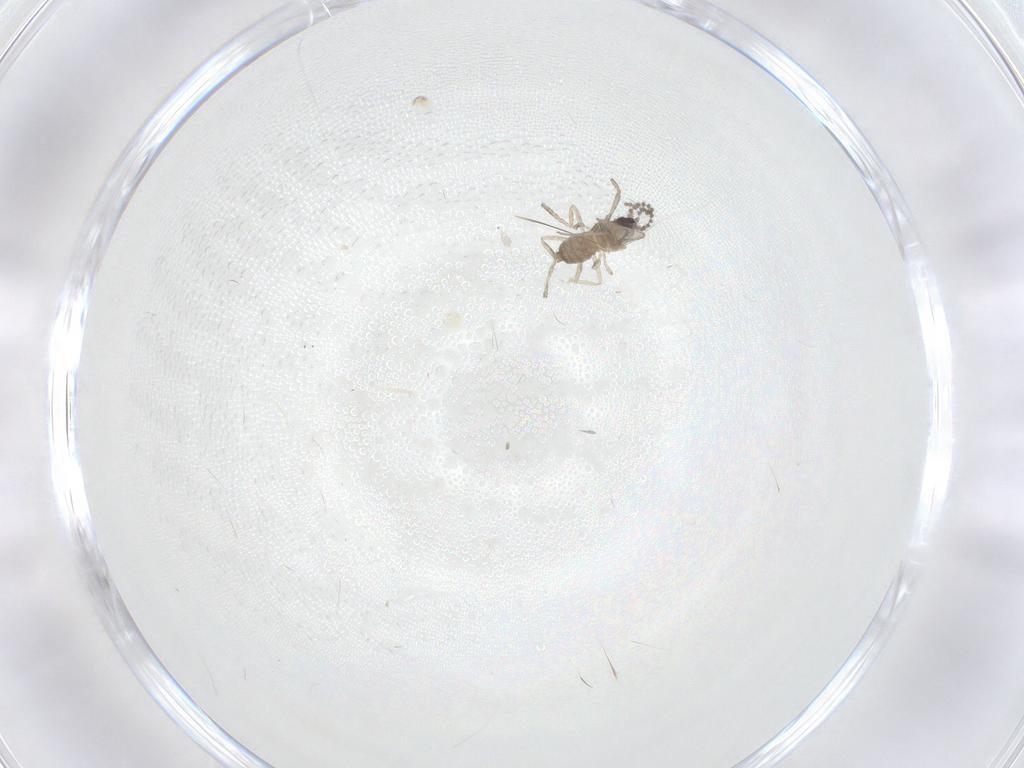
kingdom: Animalia
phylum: Arthropoda
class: Insecta
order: Diptera
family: Cecidomyiidae
